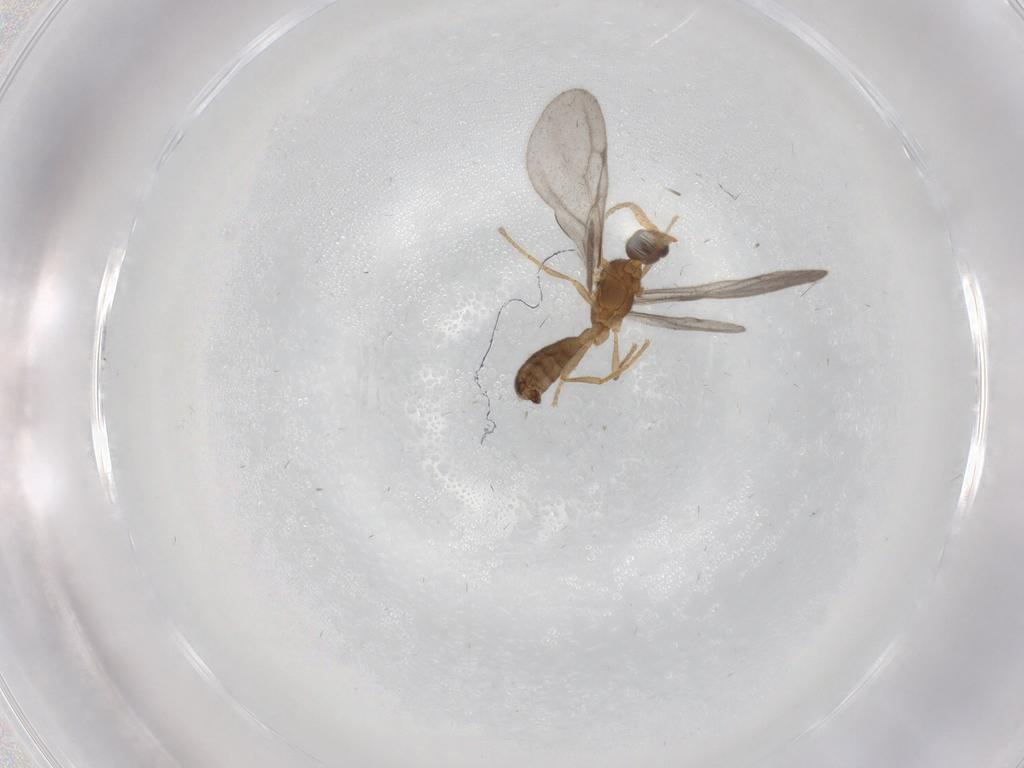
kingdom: Animalia
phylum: Arthropoda
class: Insecta
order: Hymenoptera
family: Formicidae
